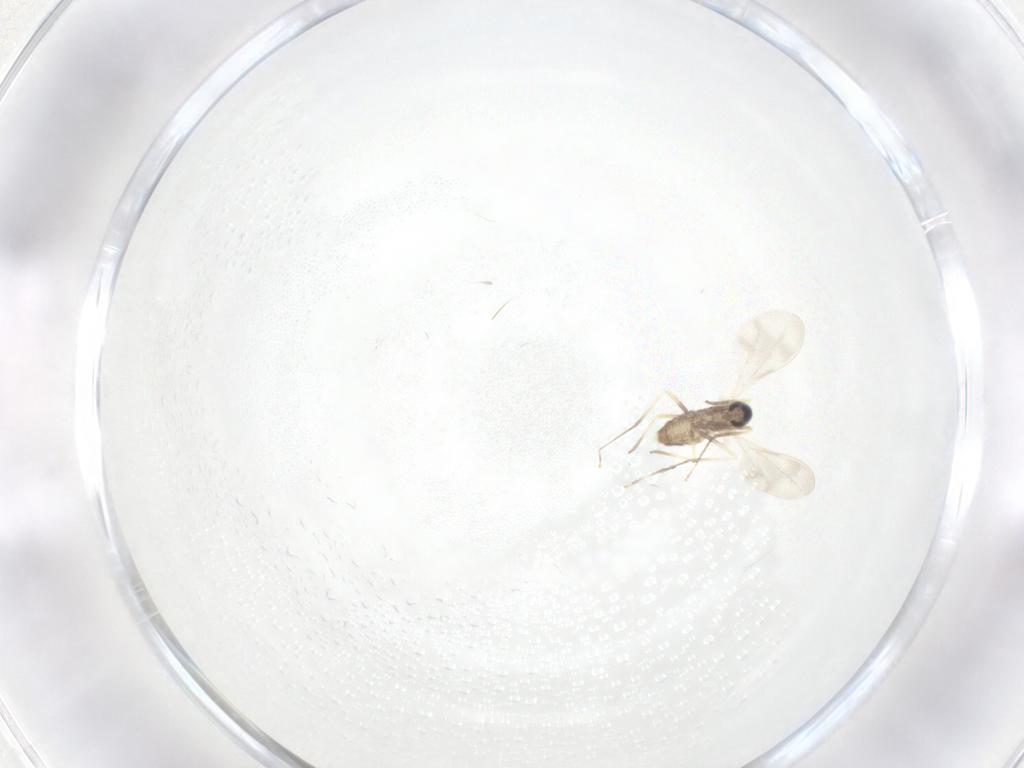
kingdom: Animalia
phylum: Arthropoda
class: Insecta
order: Diptera
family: Cecidomyiidae
